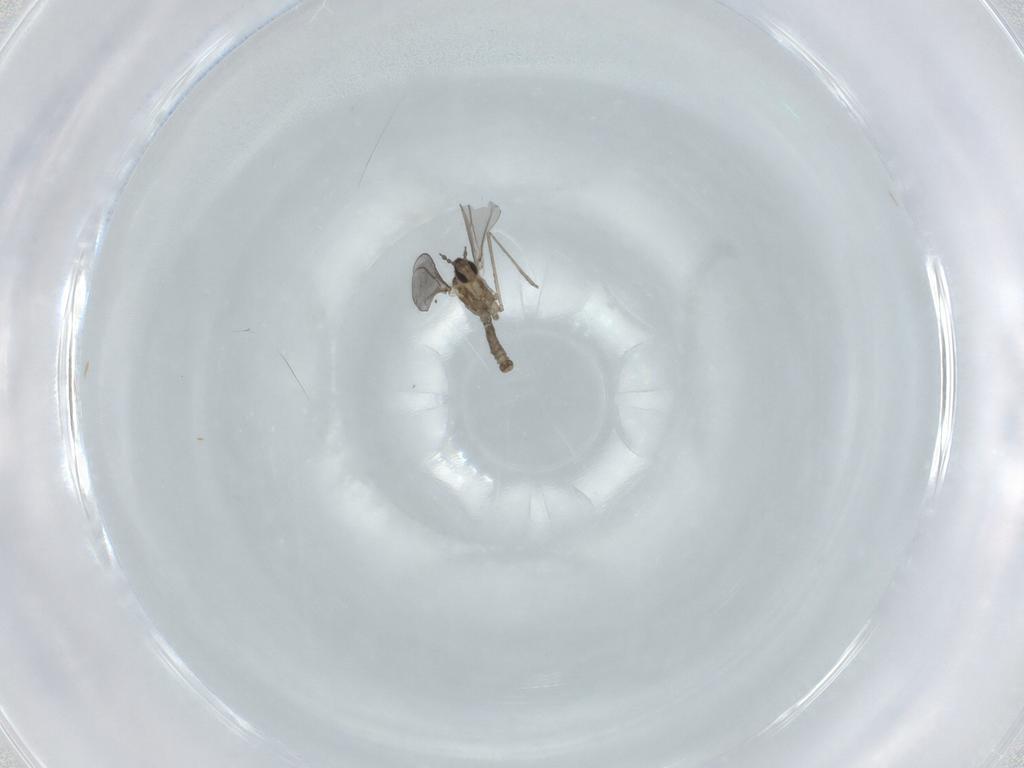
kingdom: Animalia
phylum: Arthropoda
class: Insecta
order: Diptera
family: Cecidomyiidae
